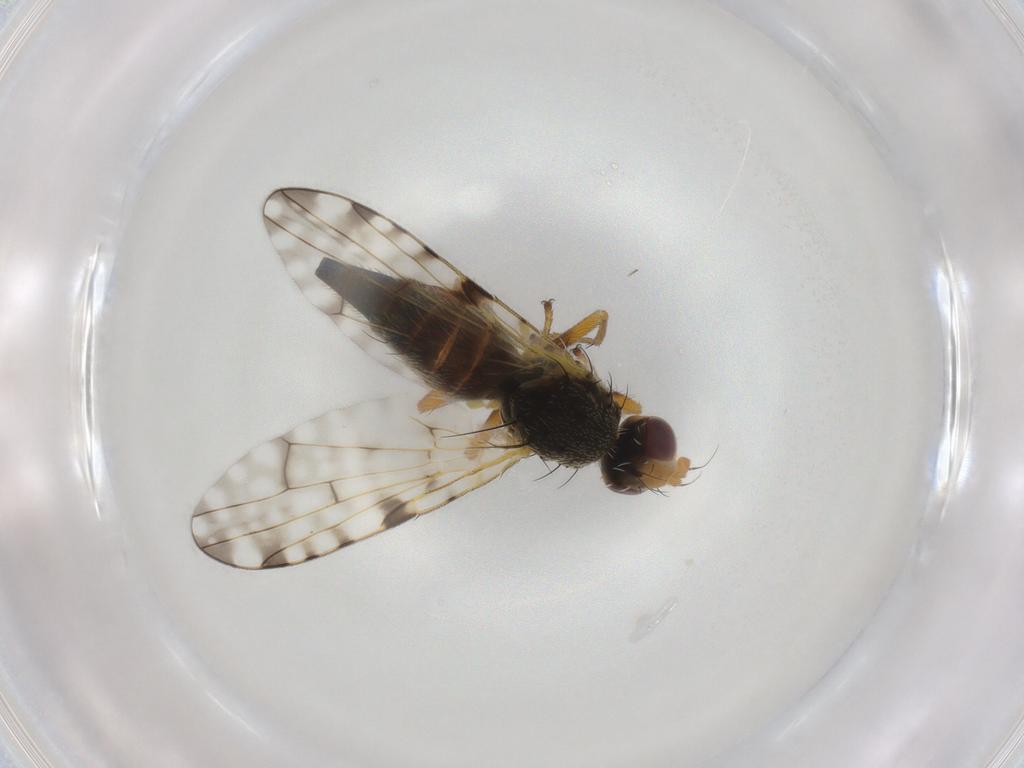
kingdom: Animalia
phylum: Arthropoda
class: Insecta
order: Diptera
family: Chironomidae
